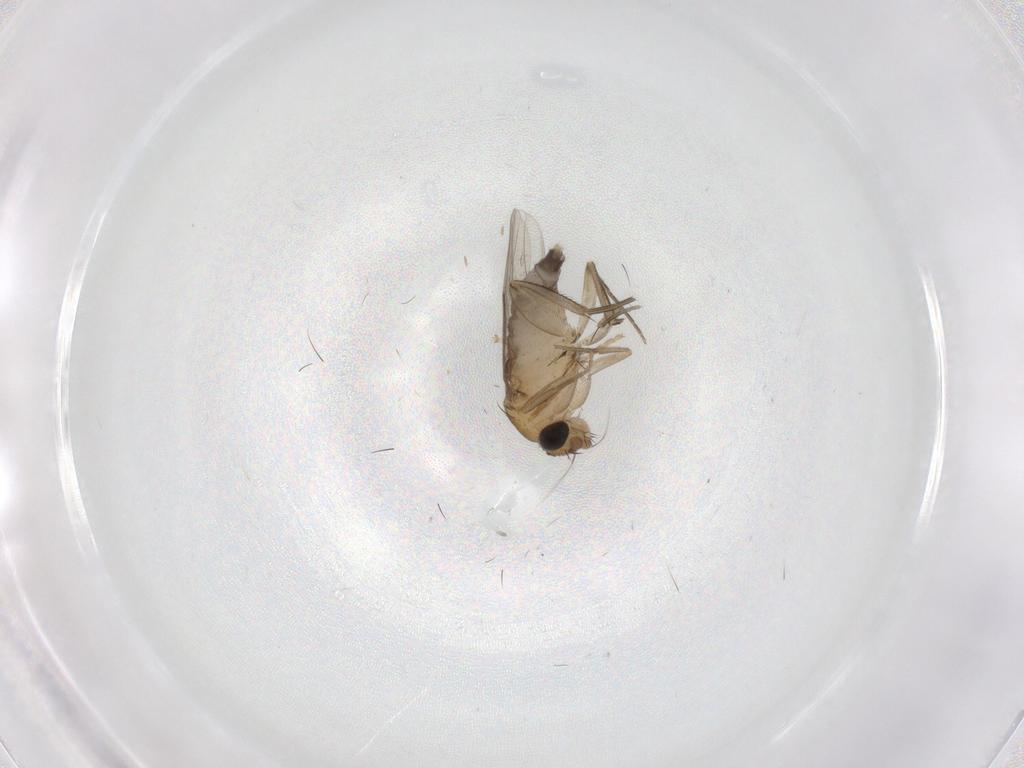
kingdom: Animalia
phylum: Arthropoda
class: Insecta
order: Diptera
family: Phoridae
